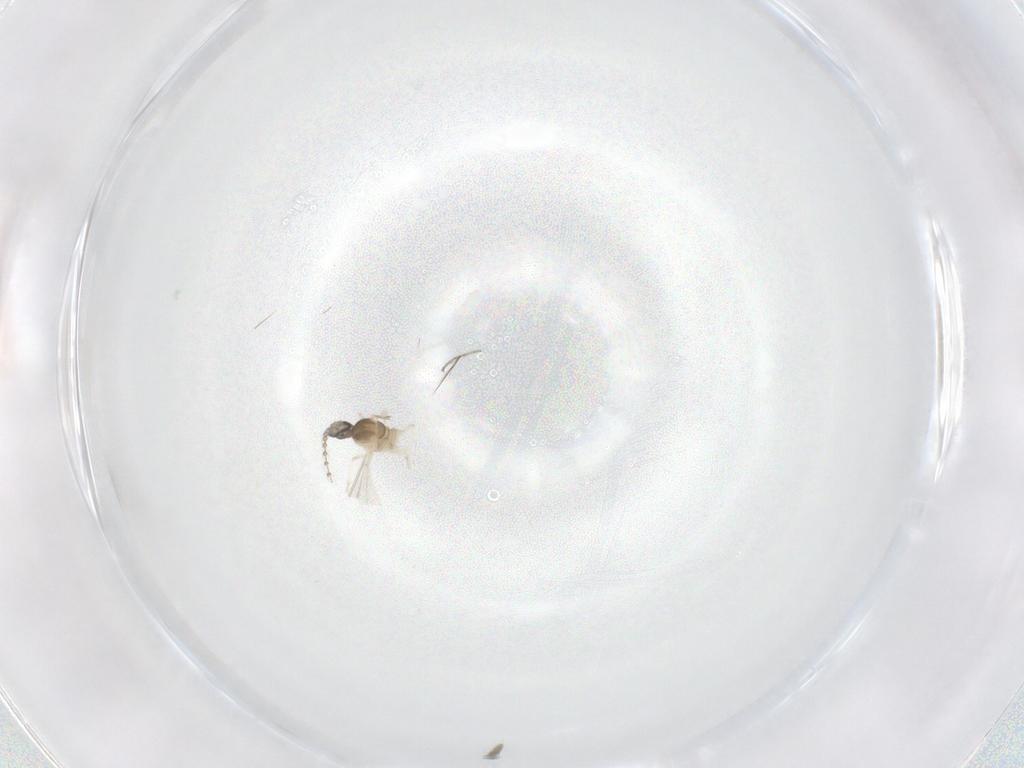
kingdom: Animalia
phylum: Arthropoda
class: Insecta
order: Diptera
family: Chironomidae
